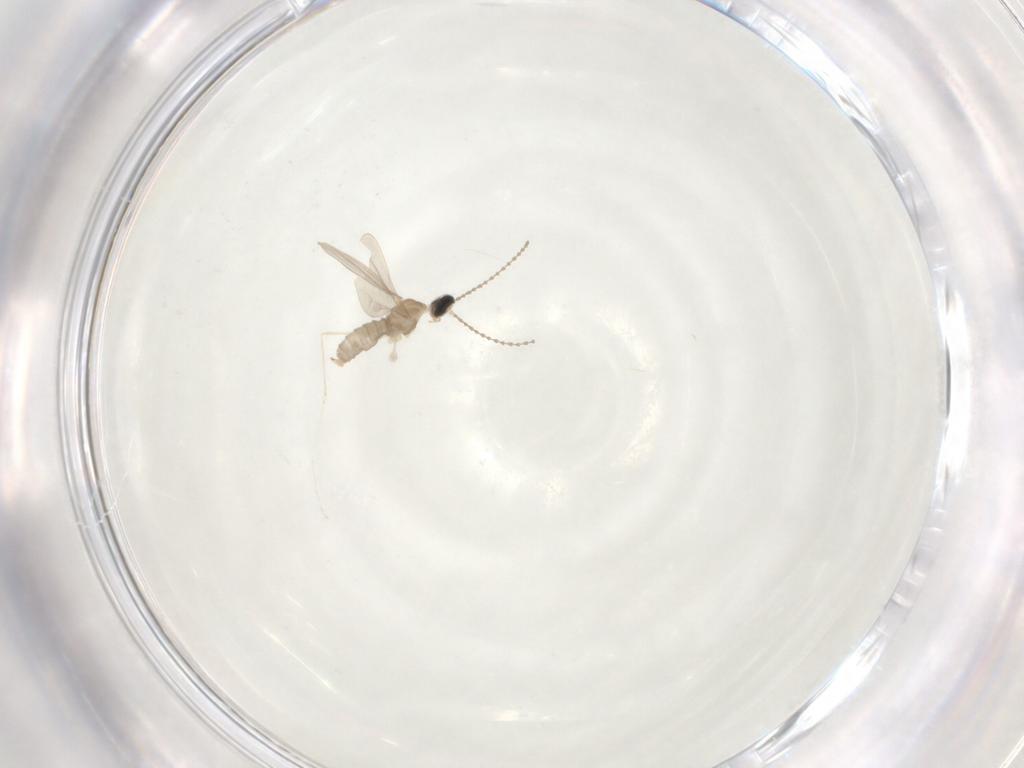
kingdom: Animalia
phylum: Arthropoda
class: Insecta
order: Diptera
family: Cecidomyiidae
